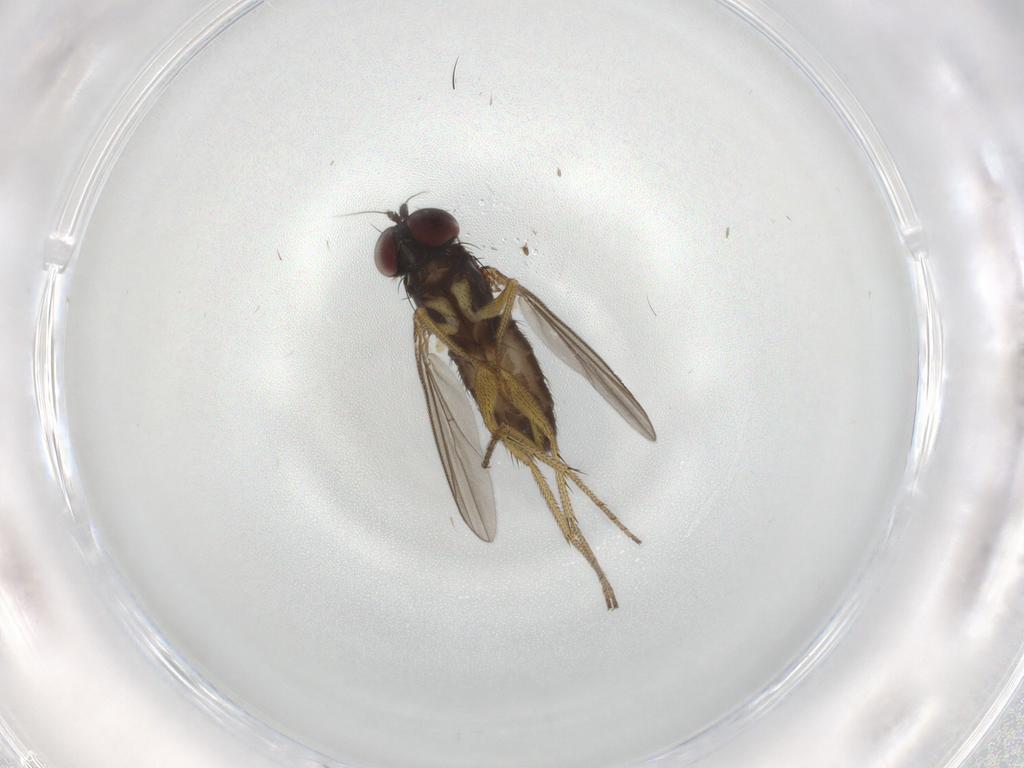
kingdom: Animalia
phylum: Arthropoda
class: Insecta
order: Diptera
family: Dolichopodidae
